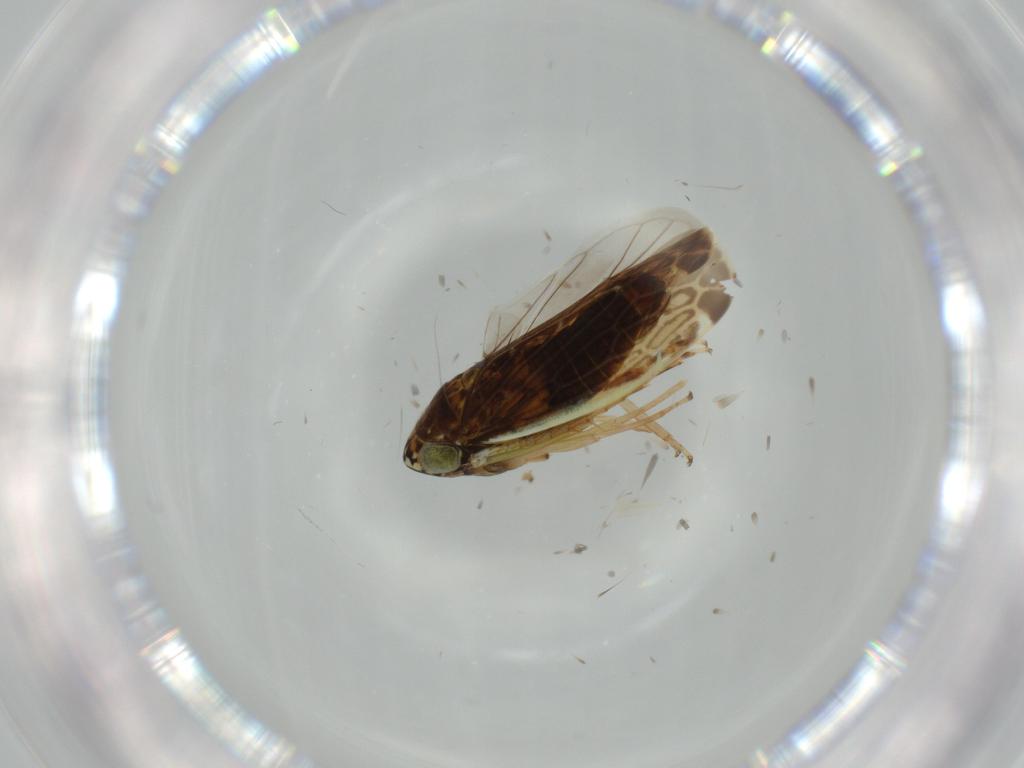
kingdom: Animalia
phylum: Arthropoda
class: Insecta
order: Hemiptera
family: Cicadellidae
